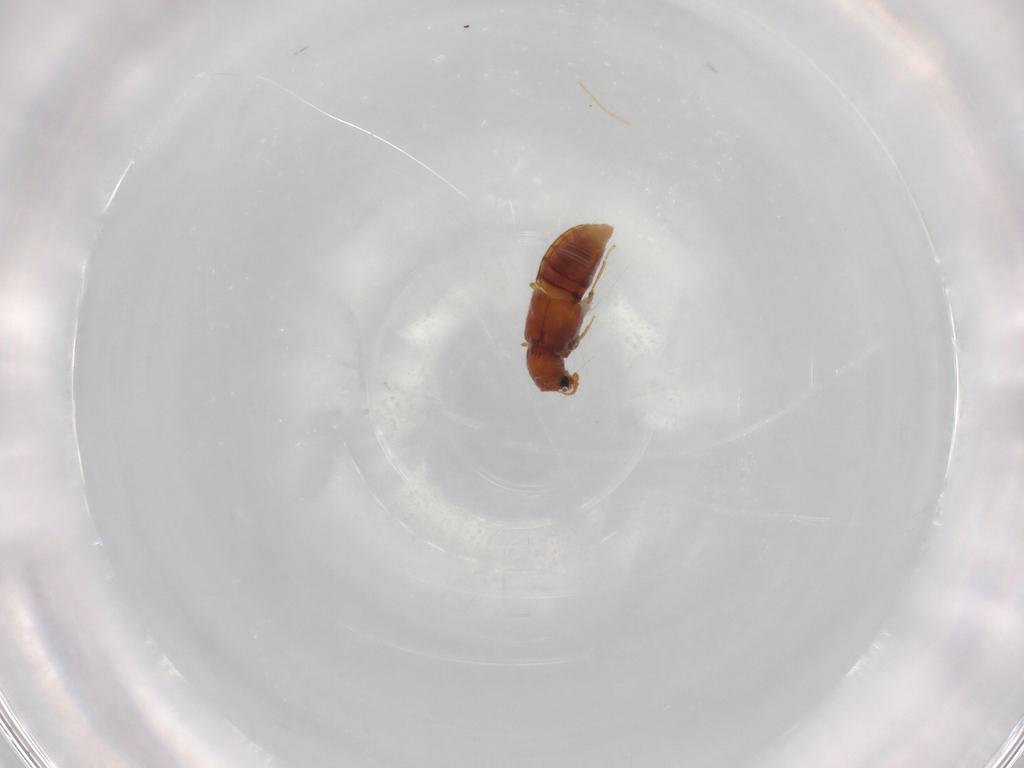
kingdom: Animalia
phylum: Arthropoda
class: Insecta
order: Coleoptera
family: Staphylinidae
